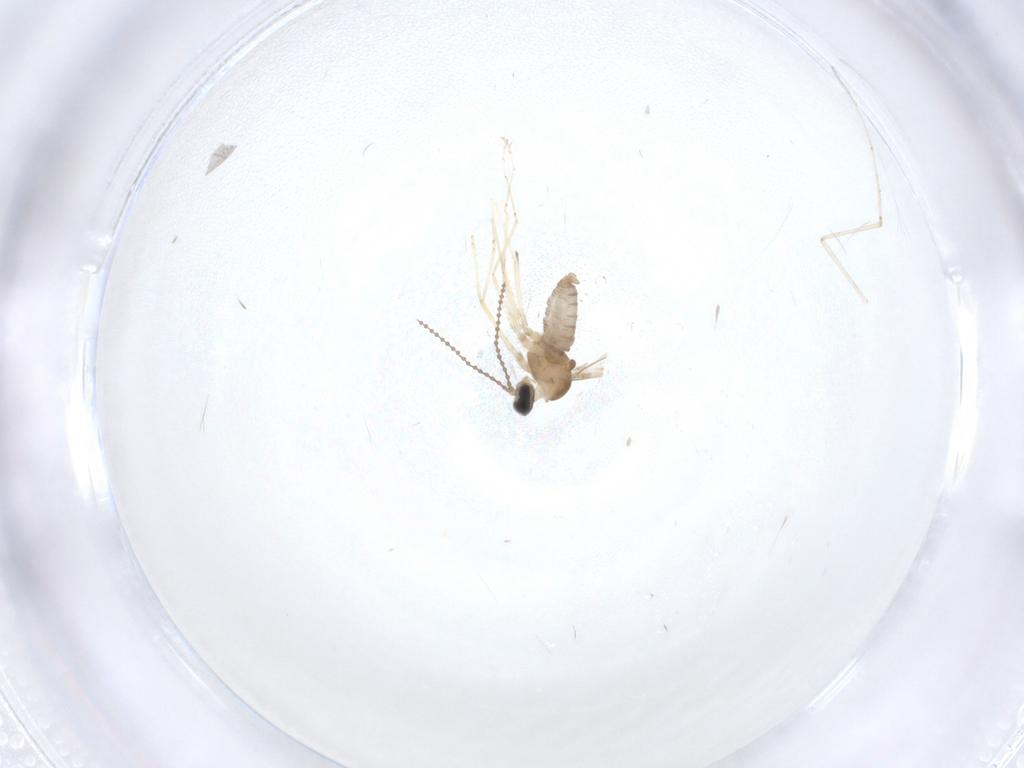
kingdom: Animalia
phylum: Arthropoda
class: Insecta
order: Diptera
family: Cecidomyiidae
